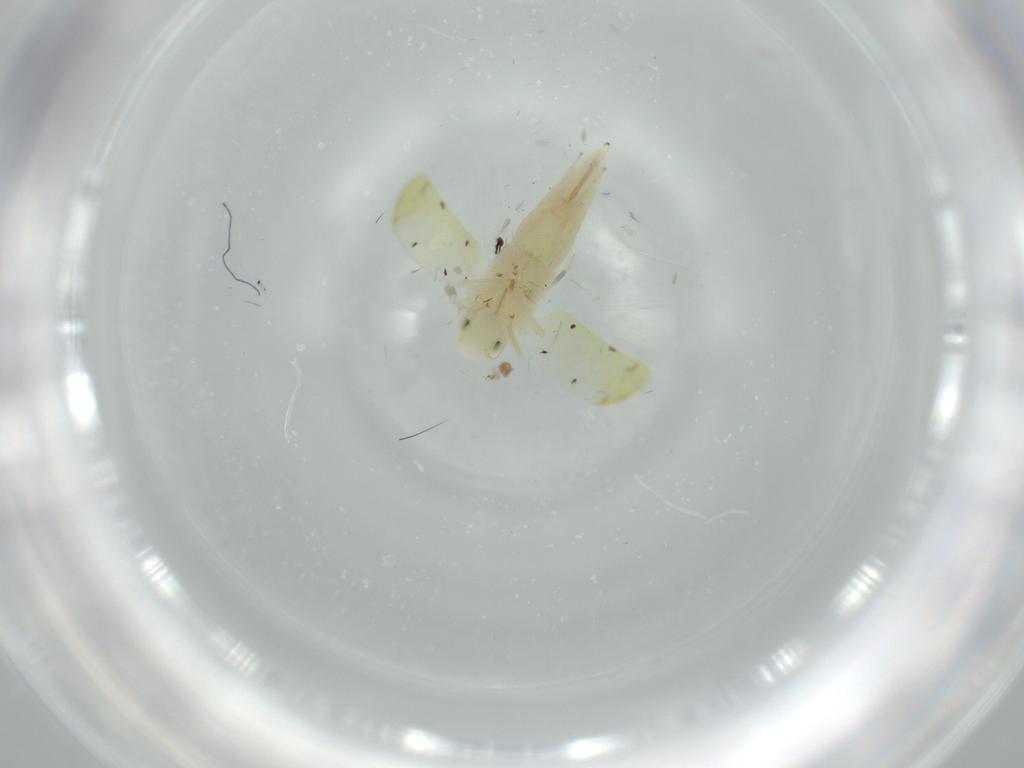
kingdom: Animalia
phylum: Arthropoda
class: Insecta
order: Hemiptera
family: Cicadellidae
